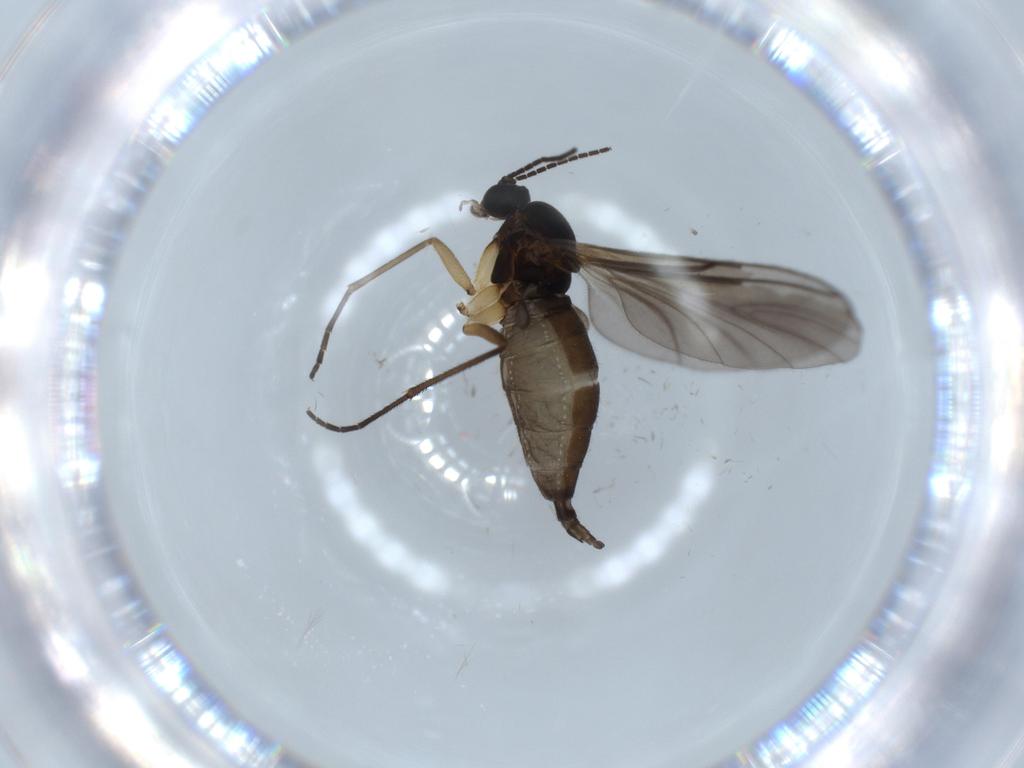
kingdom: Animalia
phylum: Arthropoda
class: Insecta
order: Diptera
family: Sciaridae
